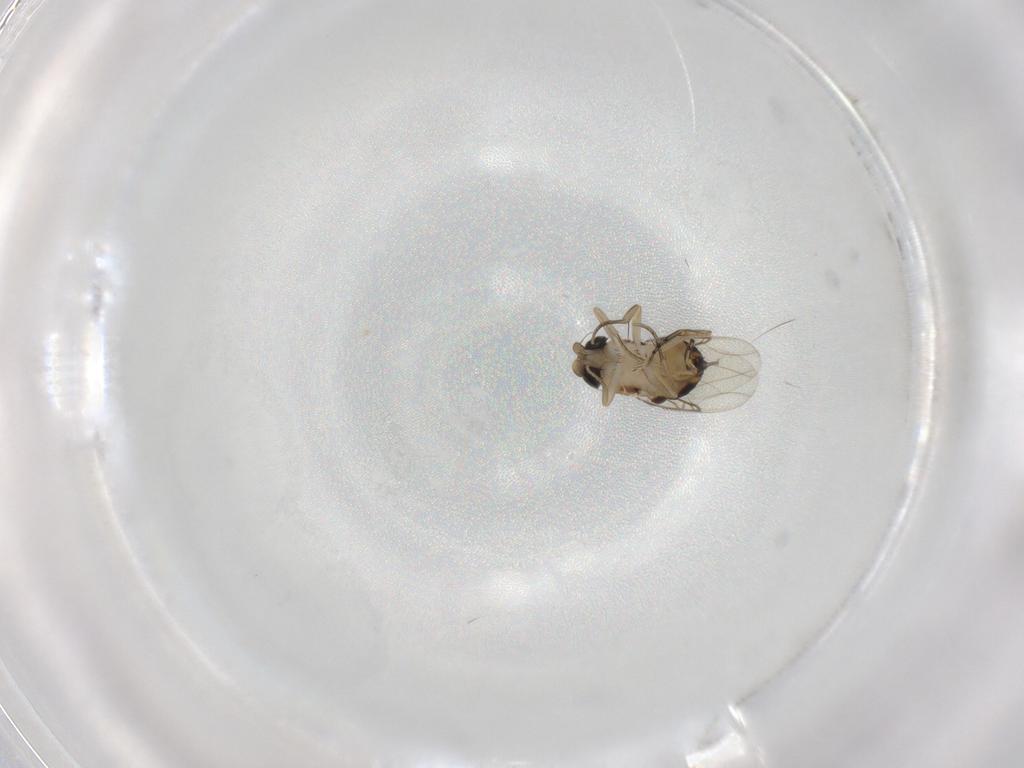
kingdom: Animalia
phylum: Arthropoda
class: Insecta
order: Diptera
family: Phoridae
